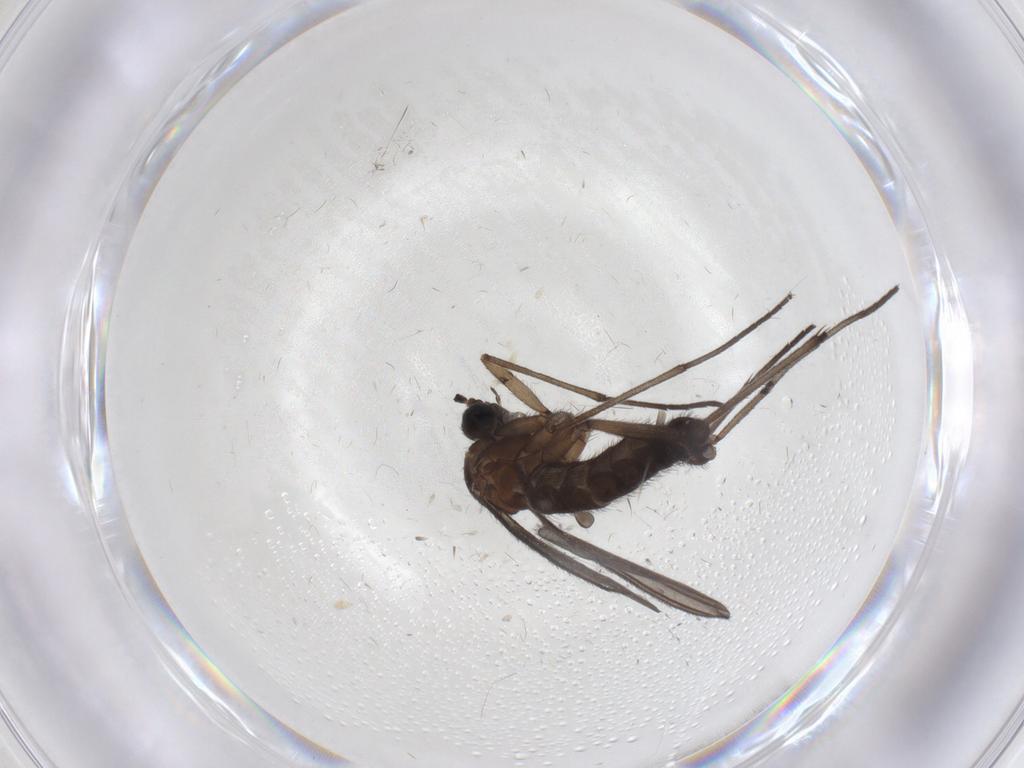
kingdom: Animalia
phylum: Arthropoda
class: Insecta
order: Diptera
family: Sciaridae
